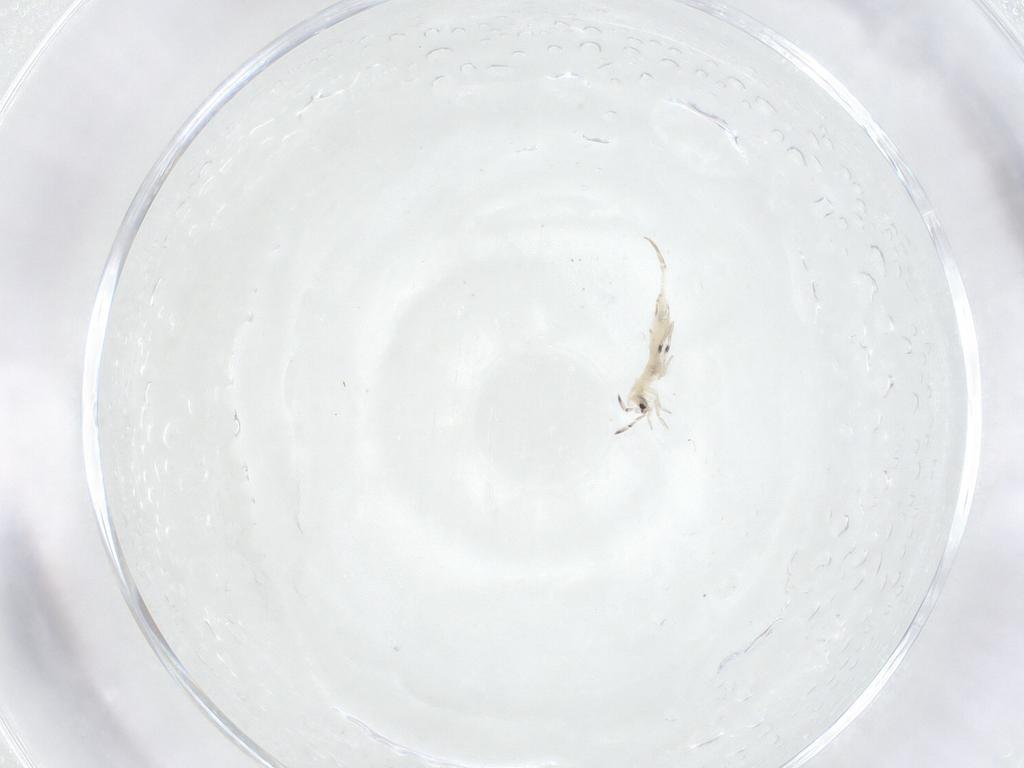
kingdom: Animalia
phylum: Arthropoda
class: Collembola
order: Entomobryomorpha
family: Entomobryidae
